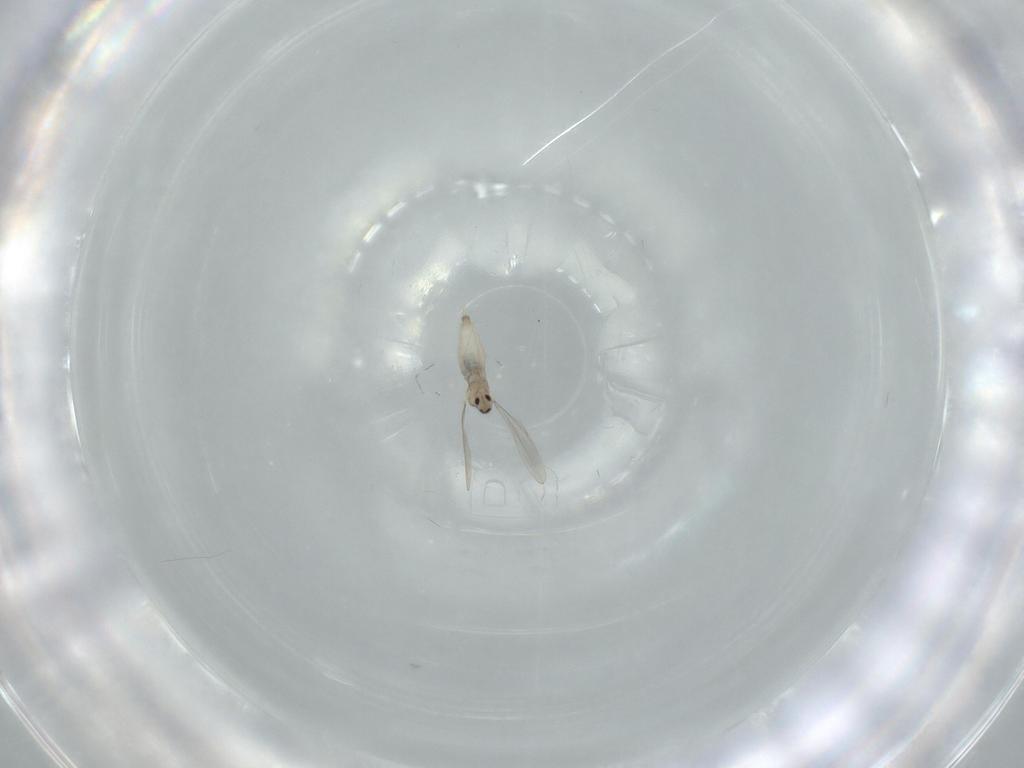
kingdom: Animalia
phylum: Arthropoda
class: Insecta
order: Diptera
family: Cecidomyiidae
